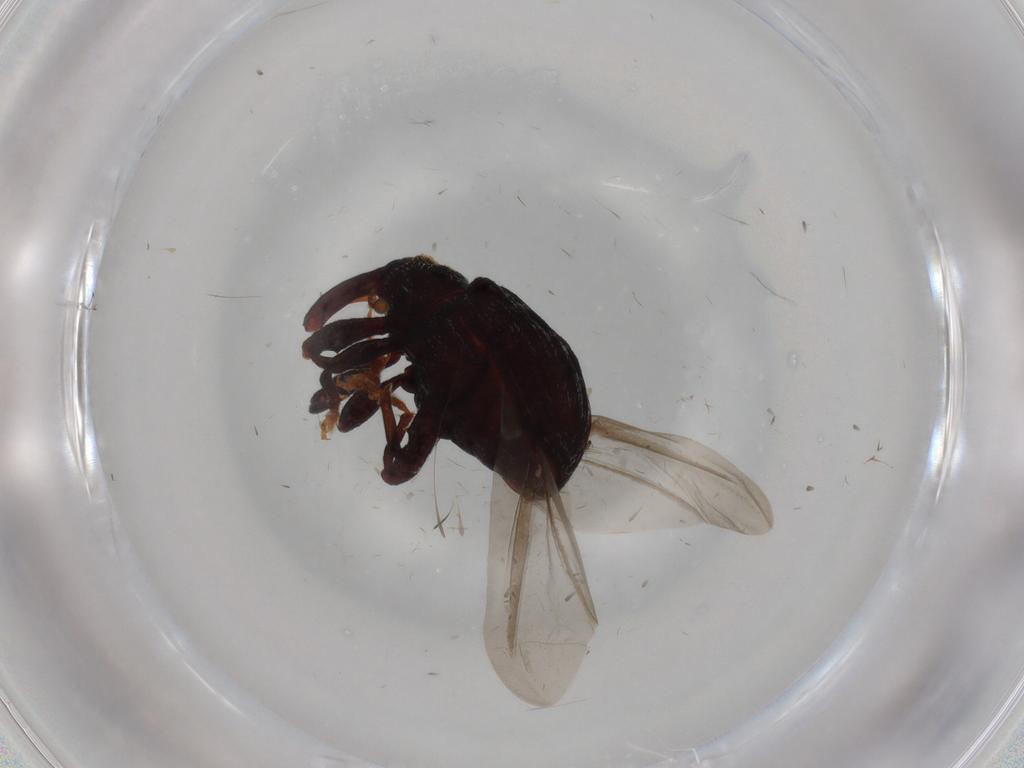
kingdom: Animalia
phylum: Arthropoda
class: Insecta
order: Coleoptera
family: Curculionidae
